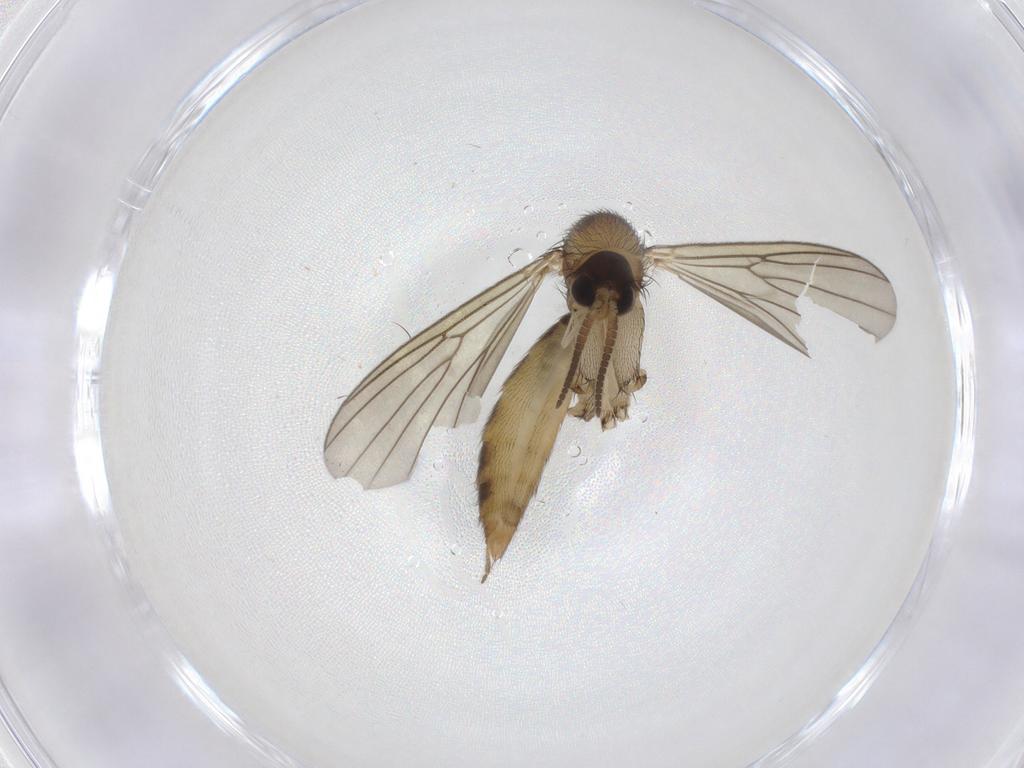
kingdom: Animalia
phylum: Arthropoda
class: Insecta
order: Diptera
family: Mycetophilidae
